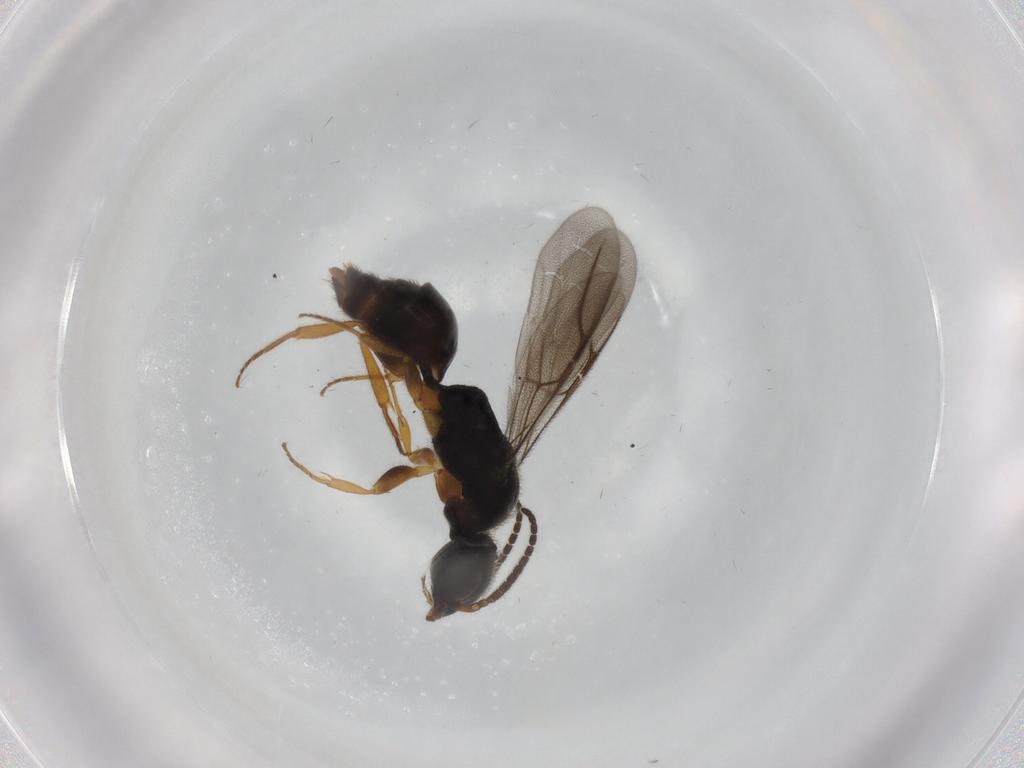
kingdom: Animalia
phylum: Arthropoda
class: Insecta
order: Hymenoptera
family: Bethylidae
